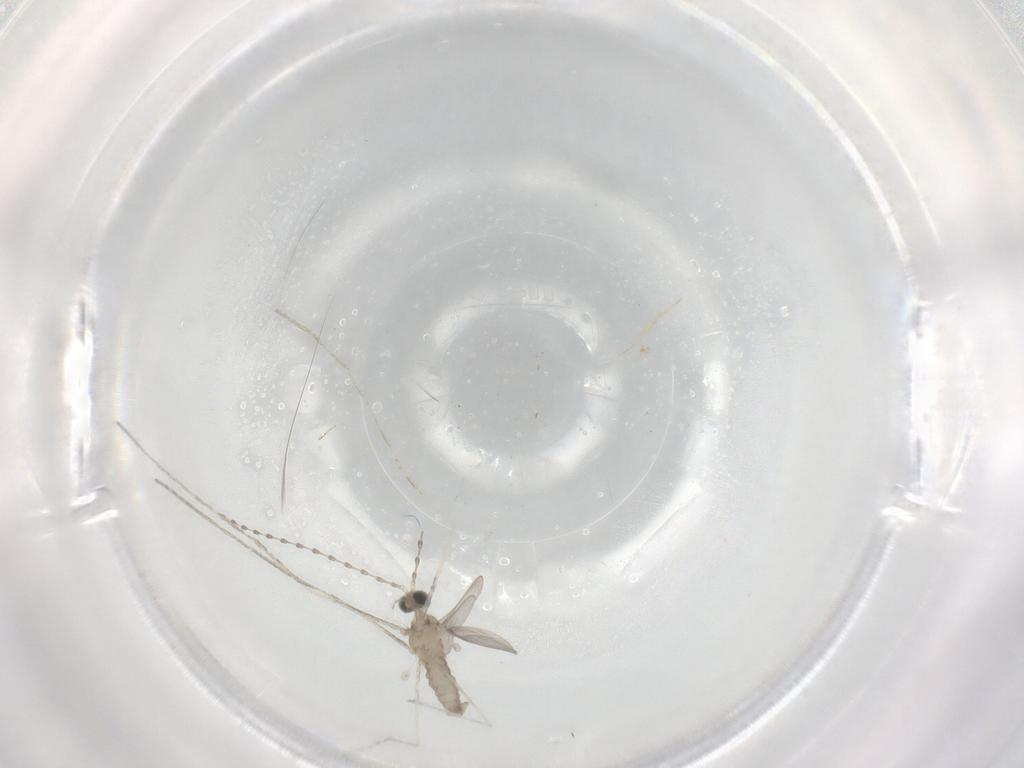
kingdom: Animalia
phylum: Arthropoda
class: Insecta
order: Diptera
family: Cecidomyiidae
